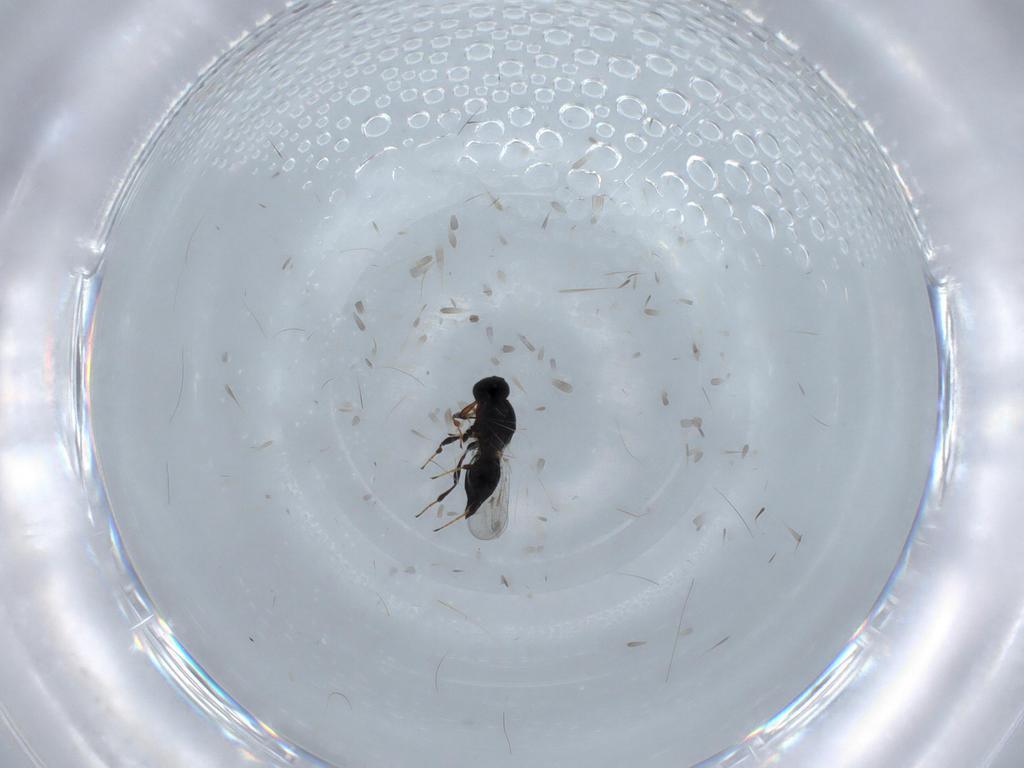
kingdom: Animalia
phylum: Arthropoda
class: Insecta
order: Hymenoptera
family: Platygastridae
